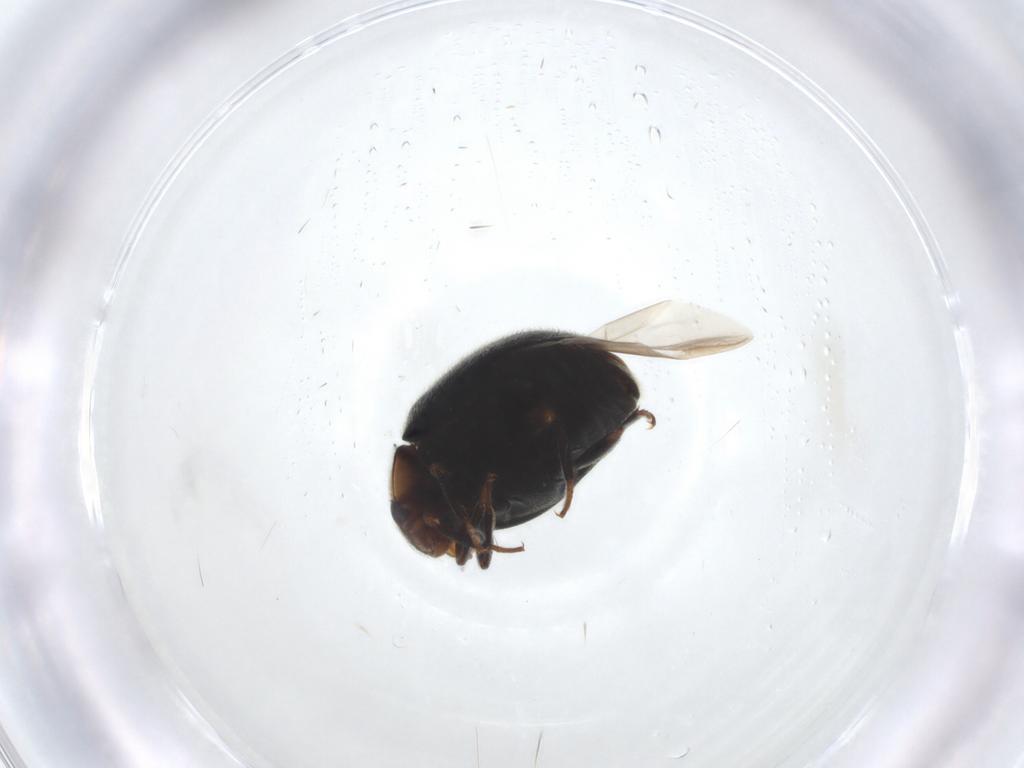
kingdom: Animalia
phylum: Arthropoda
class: Insecta
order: Coleoptera
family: Coccinellidae
